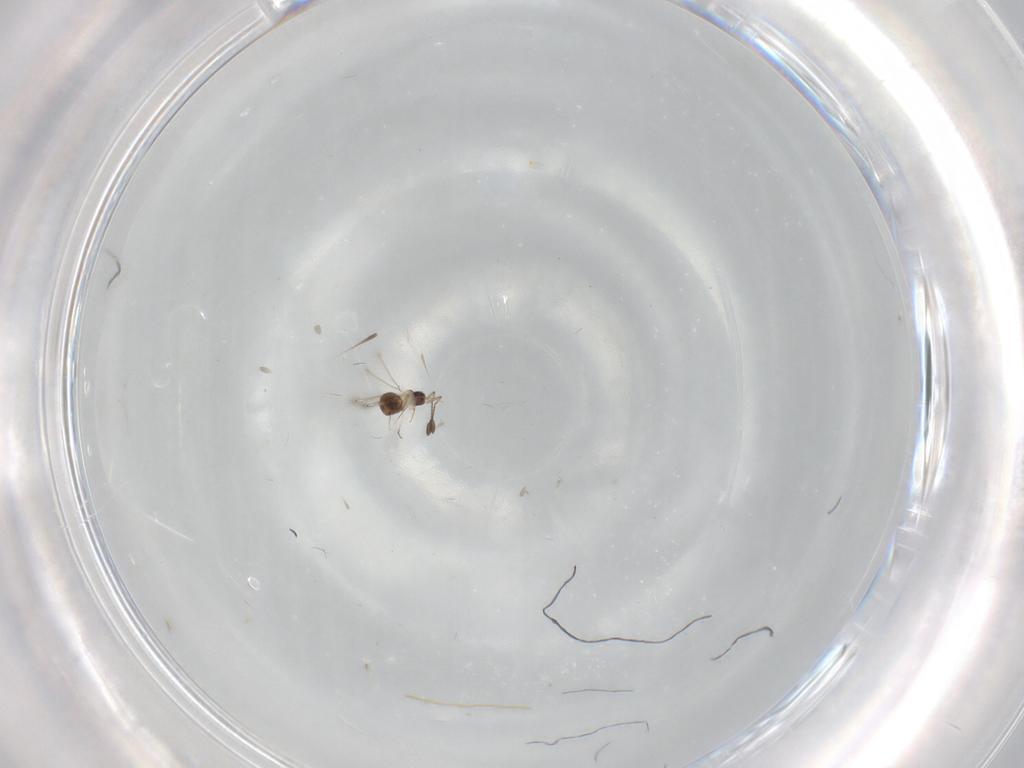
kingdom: Animalia
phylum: Arthropoda
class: Insecta
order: Hymenoptera
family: Mymaridae
